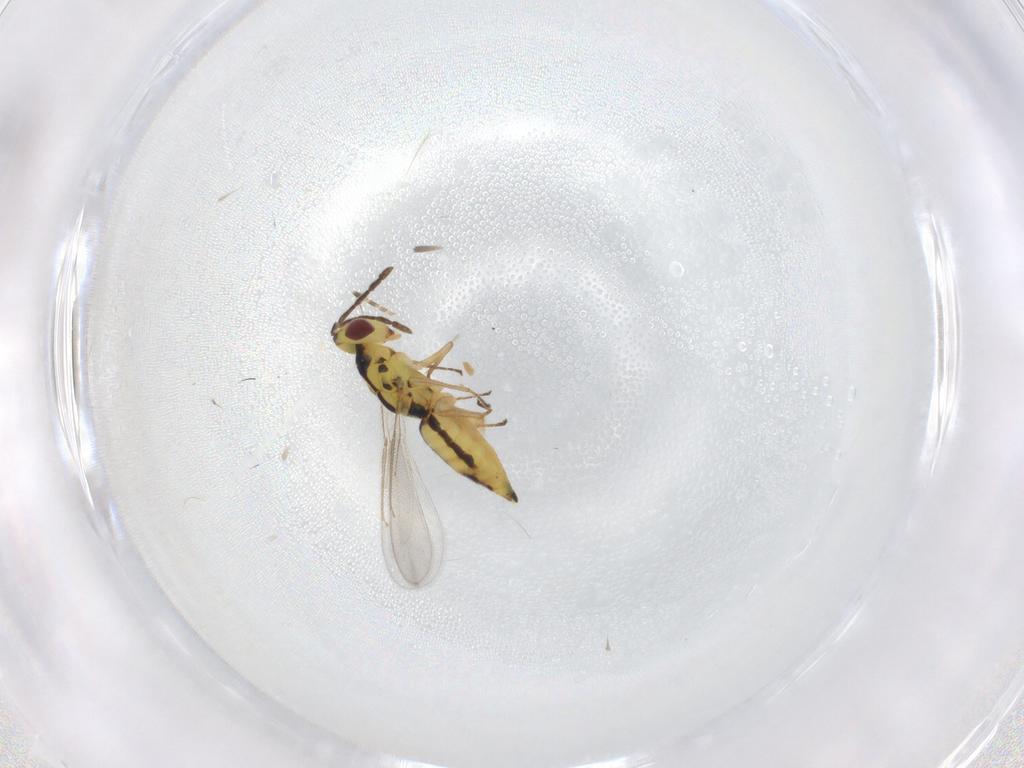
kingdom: Animalia
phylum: Arthropoda
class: Insecta
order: Hymenoptera
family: Eulophidae
